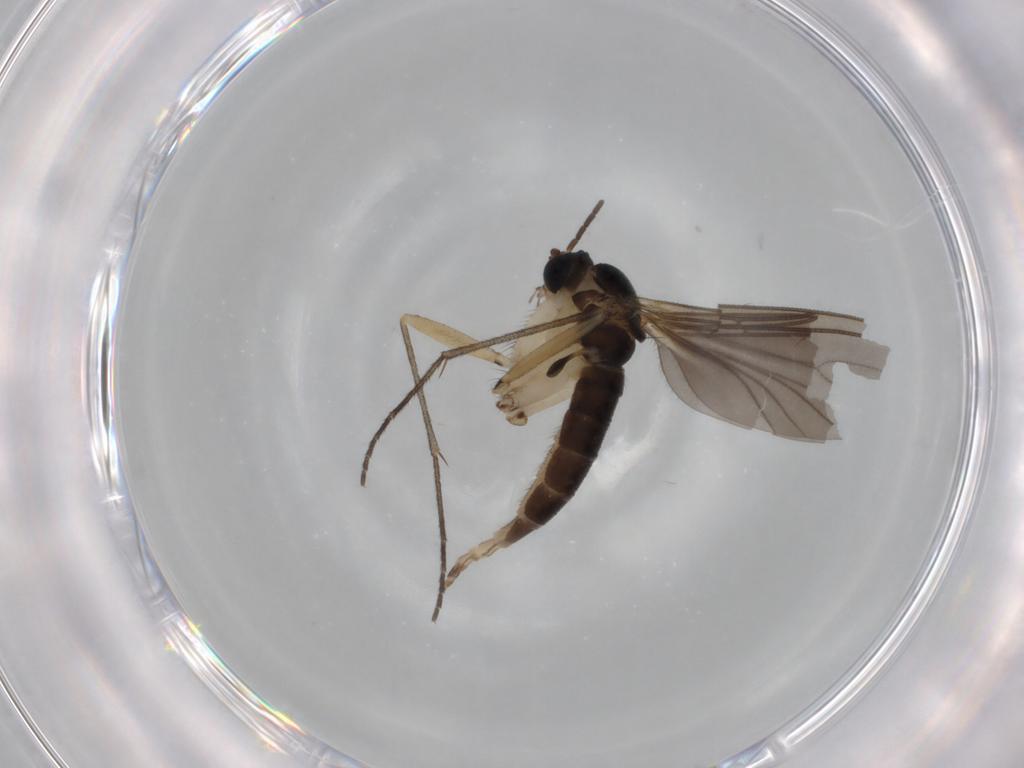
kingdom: Animalia
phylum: Arthropoda
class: Insecta
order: Diptera
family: Sciaridae
